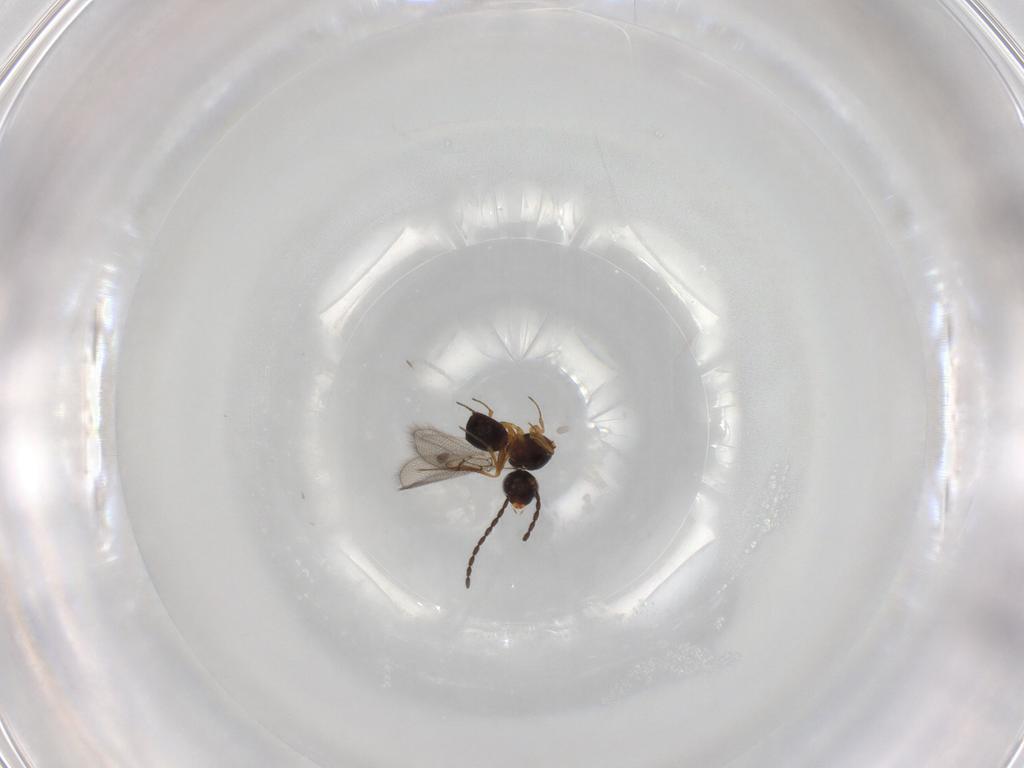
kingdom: Animalia
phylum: Arthropoda
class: Insecta
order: Hymenoptera
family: Figitidae
